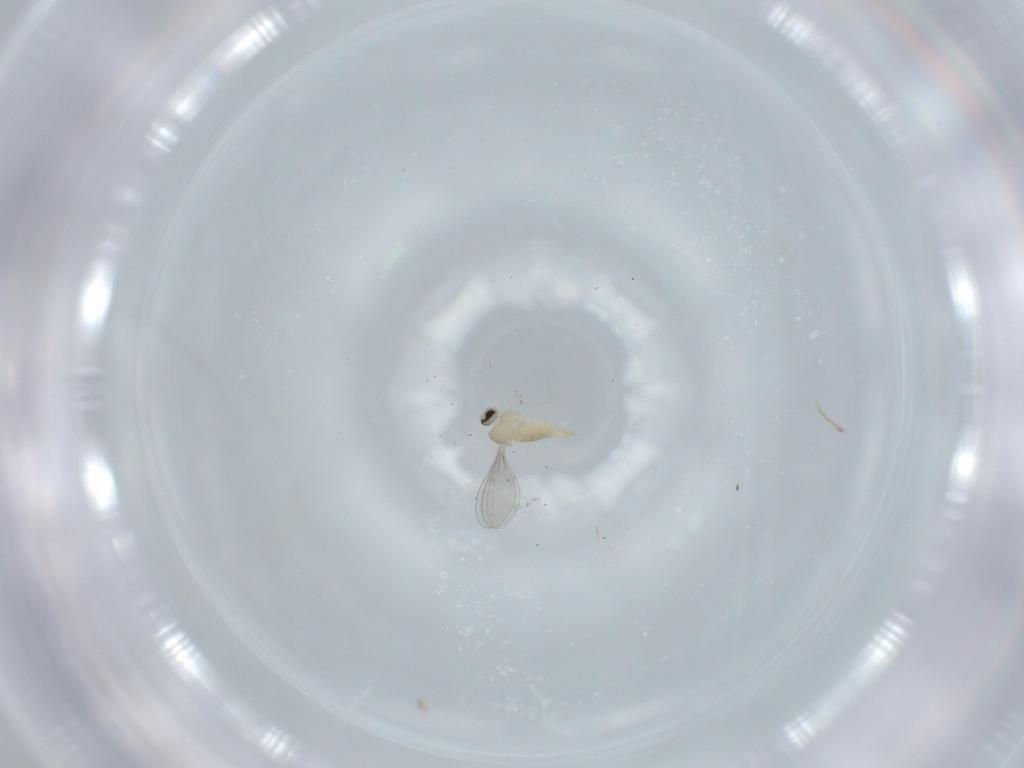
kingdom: Animalia
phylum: Arthropoda
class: Insecta
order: Diptera
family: Cecidomyiidae
